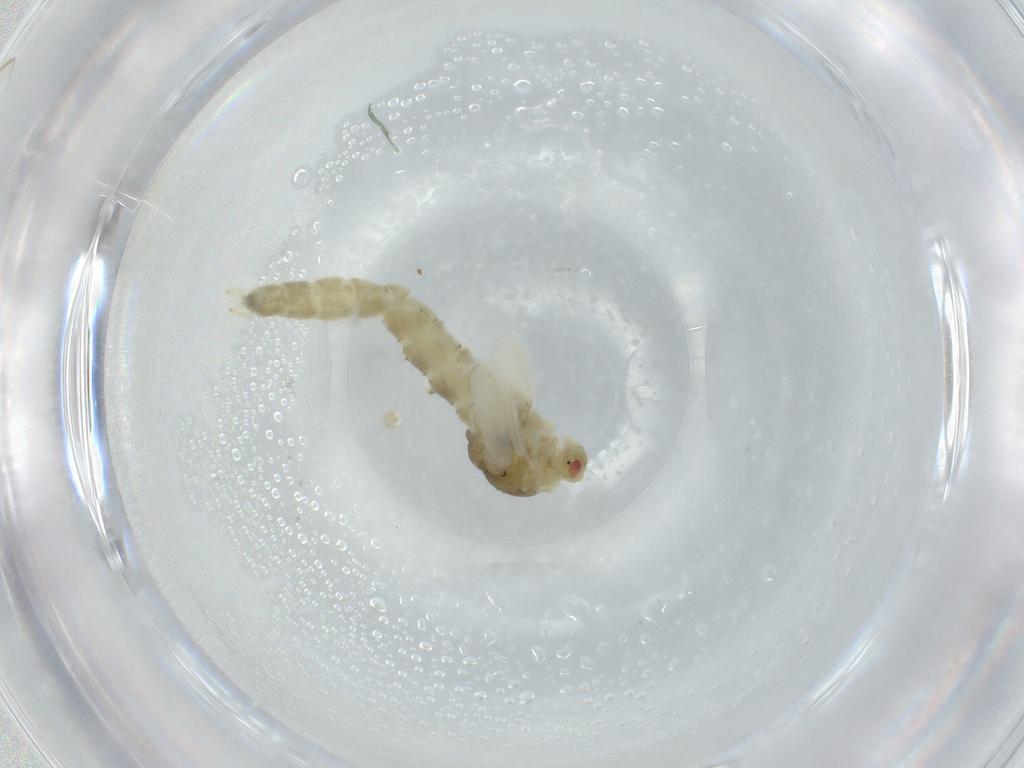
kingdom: Animalia
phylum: Arthropoda
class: Insecta
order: Diptera
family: Chironomidae
